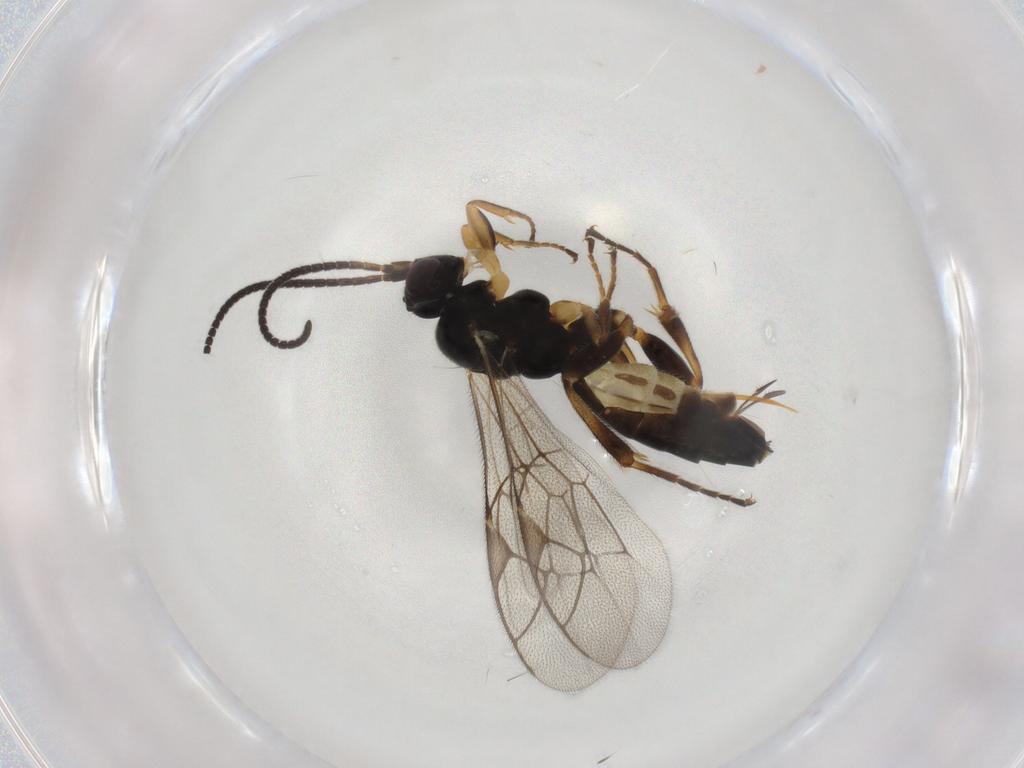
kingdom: Animalia
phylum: Arthropoda
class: Insecta
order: Hymenoptera
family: Ichneumonidae
